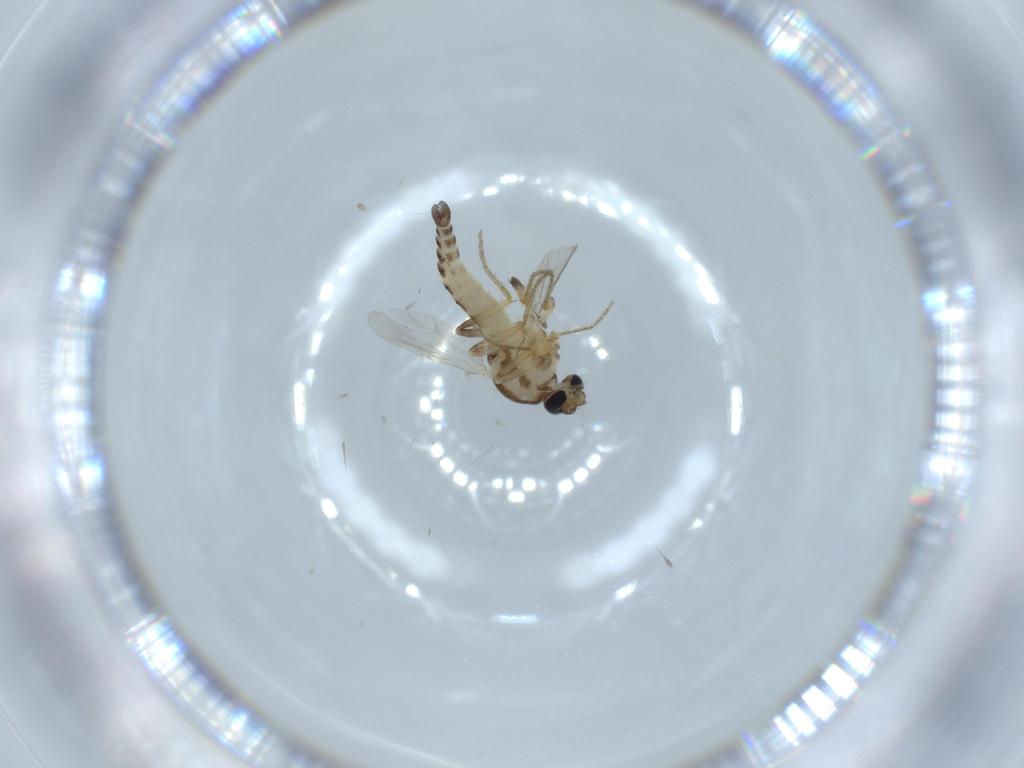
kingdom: Animalia
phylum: Arthropoda
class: Insecta
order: Diptera
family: Ceratopogonidae
